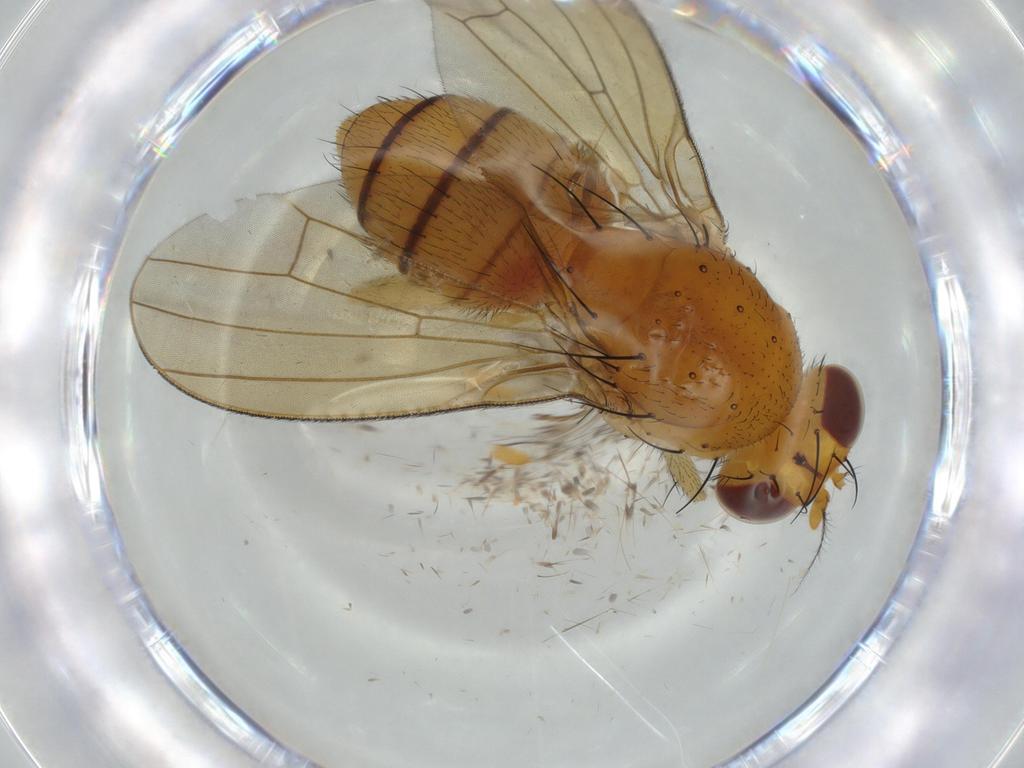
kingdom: Animalia
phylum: Arthropoda
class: Insecta
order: Diptera
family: Sciaridae
